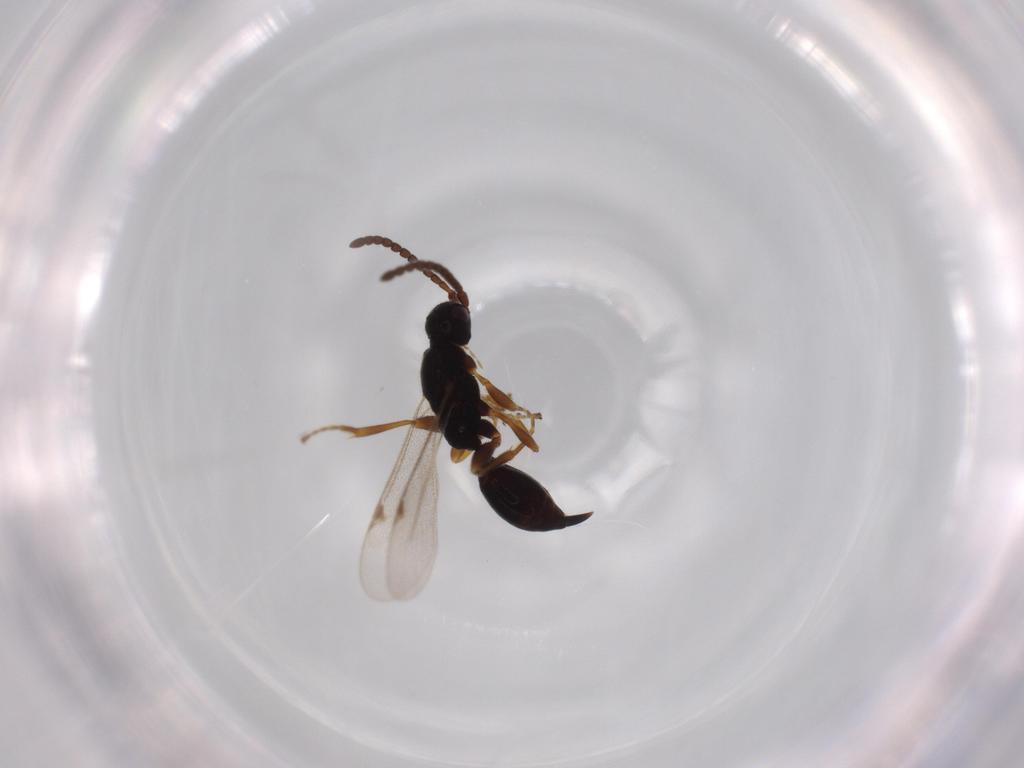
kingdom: Animalia
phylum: Arthropoda
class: Insecta
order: Hymenoptera
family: Proctotrupidae
